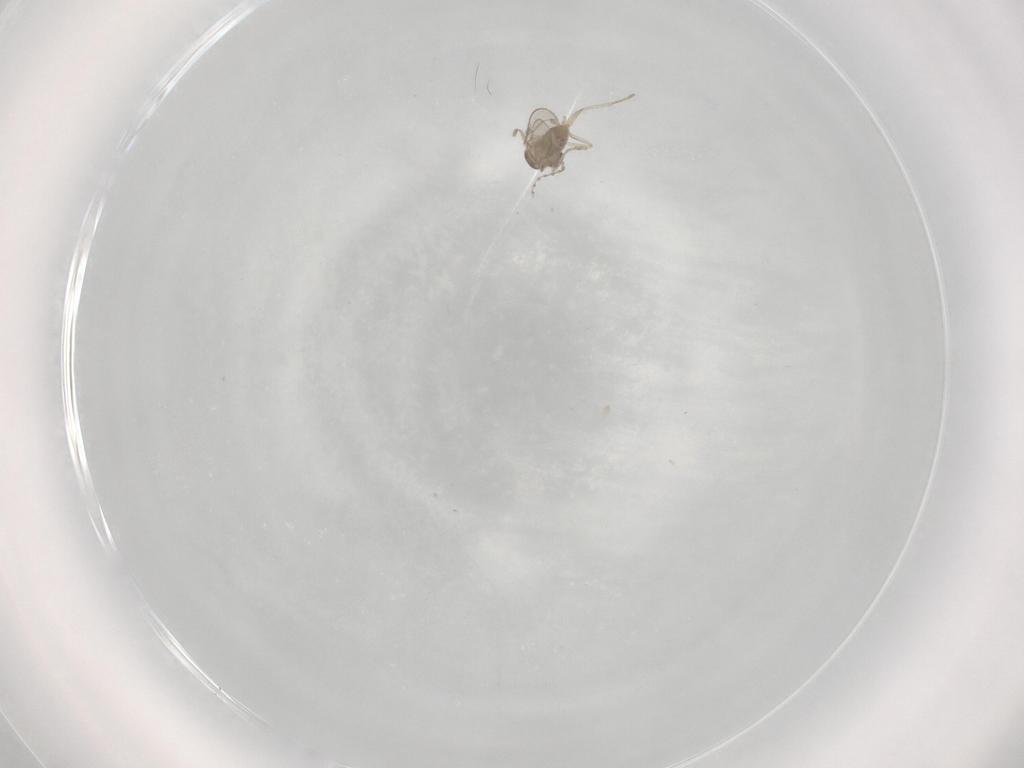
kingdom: Animalia
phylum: Arthropoda
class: Insecta
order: Diptera
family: Cecidomyiidae
